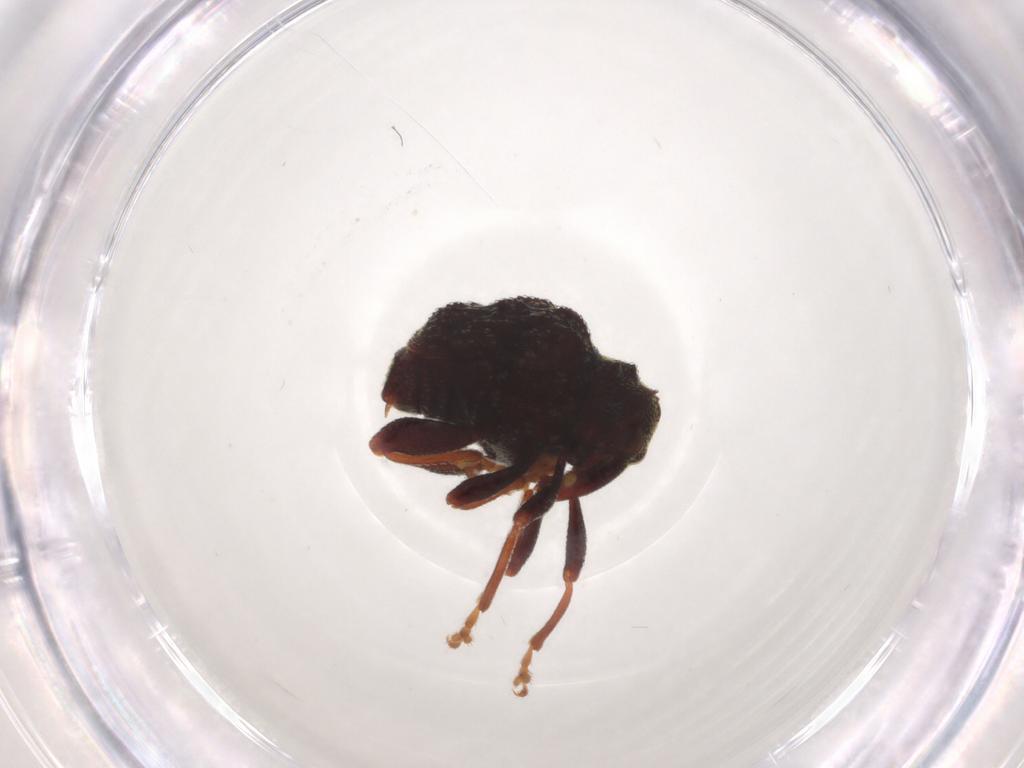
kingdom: Animalia
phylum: Arthropoda
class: Insecta
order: Coleoptera
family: Curculionidae
